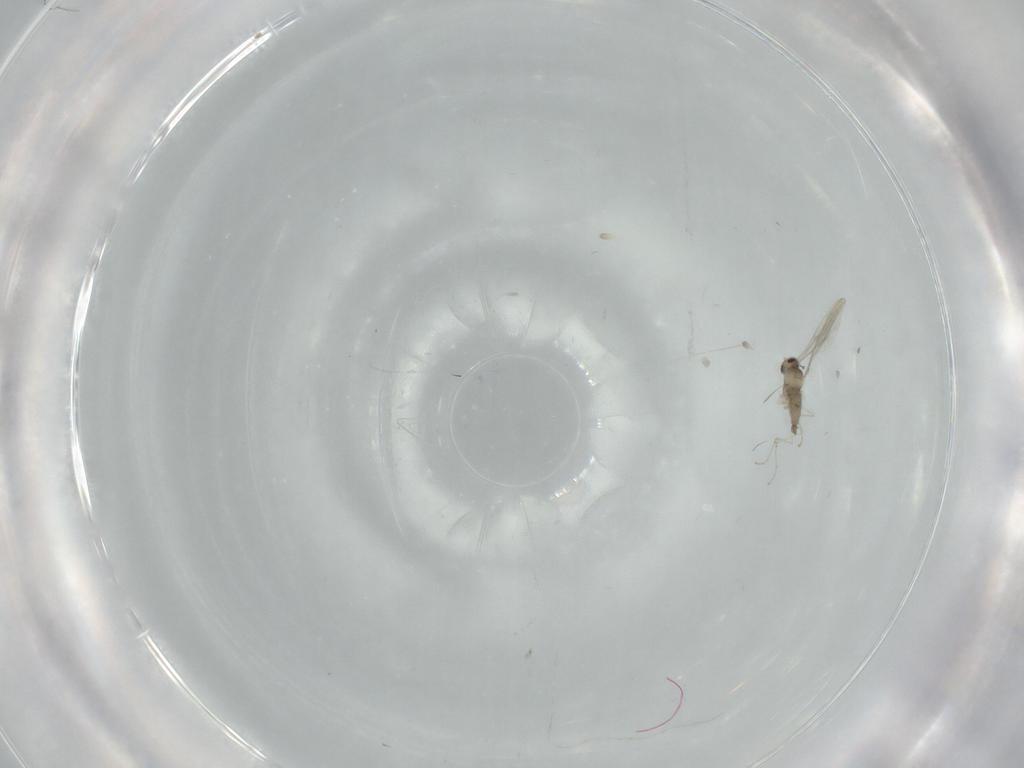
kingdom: Animalia
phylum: Arthropoda
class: Insecta
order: Diptera
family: Cecidomyiidae
